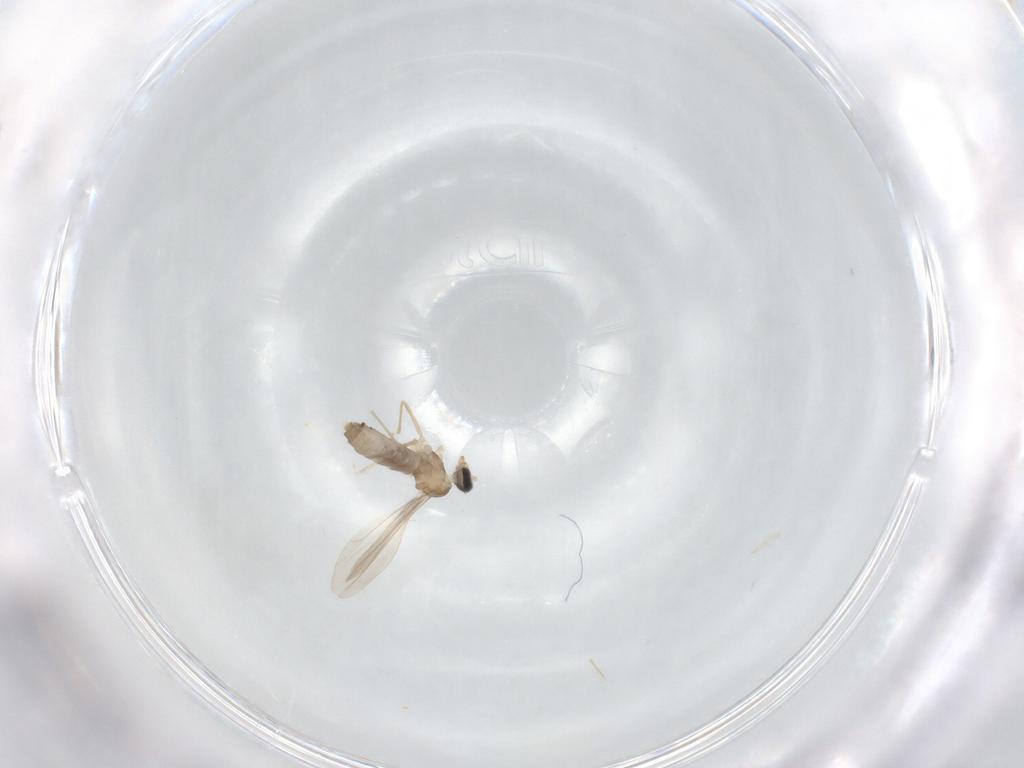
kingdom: Animalia
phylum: Arthropoda
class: Insecta
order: Diptera
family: Cecidomyiidae
